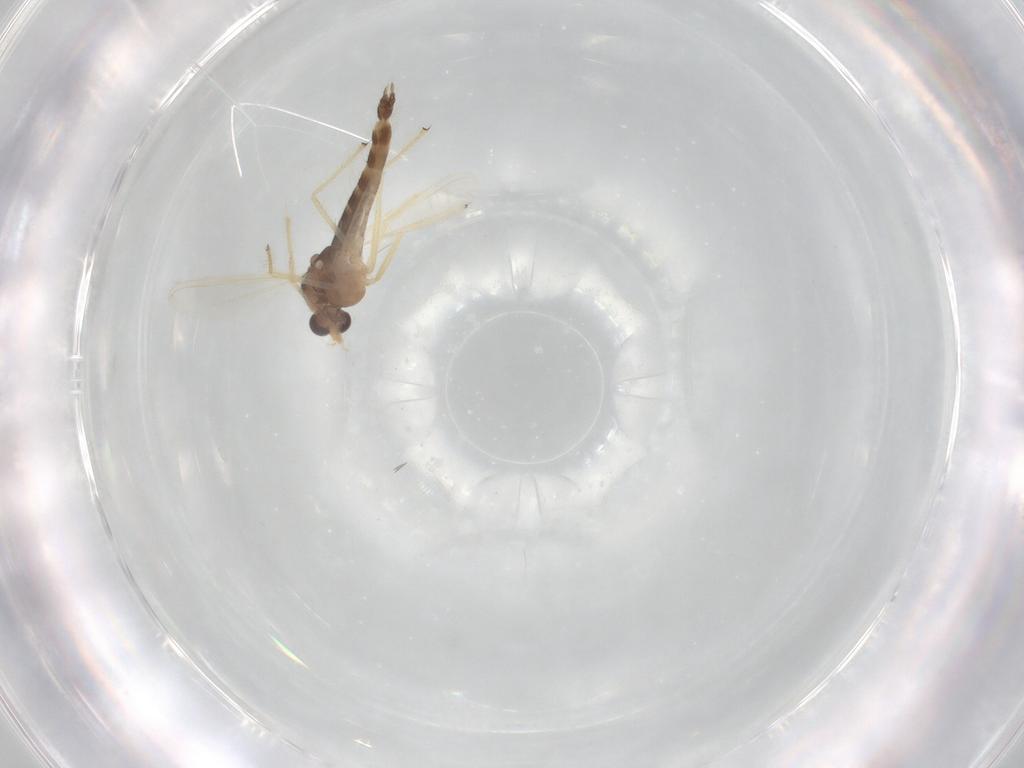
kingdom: Animalia
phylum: Arthropoda
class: Insecta
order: Diptera
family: Chironomidae
